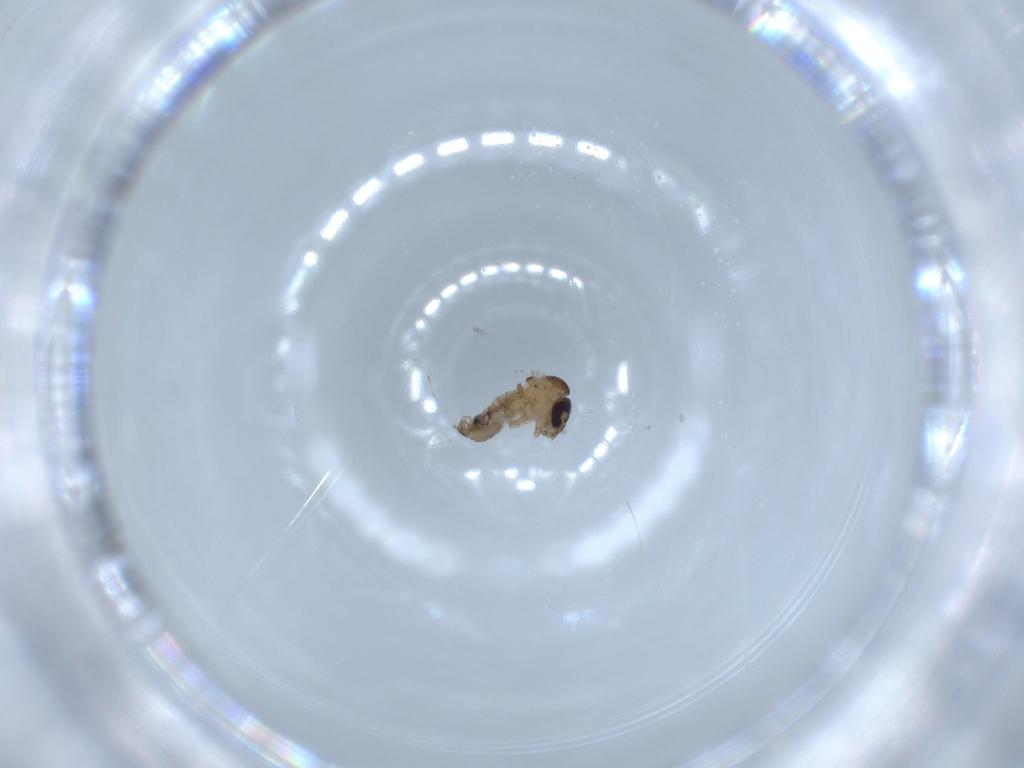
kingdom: Animalia
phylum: Arthropoda
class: Insecta
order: Diptera
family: Psychodidae
